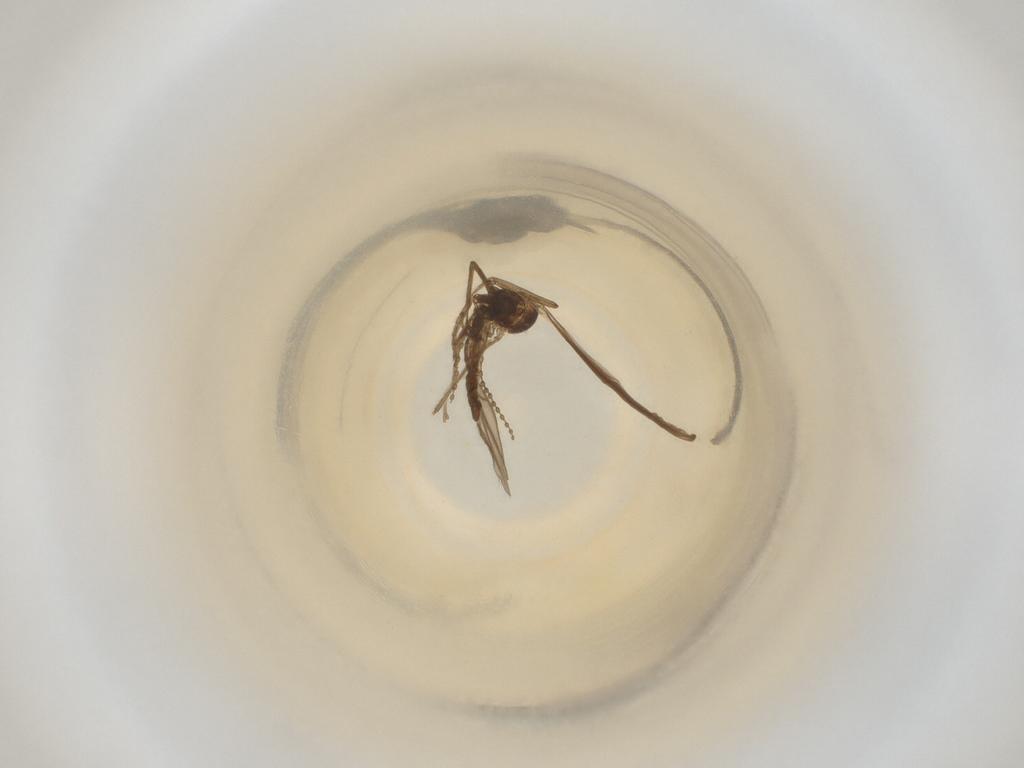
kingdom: Animalia
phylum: Arthropoda
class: Insecta
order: Diptera
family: Cecidomyiidae
